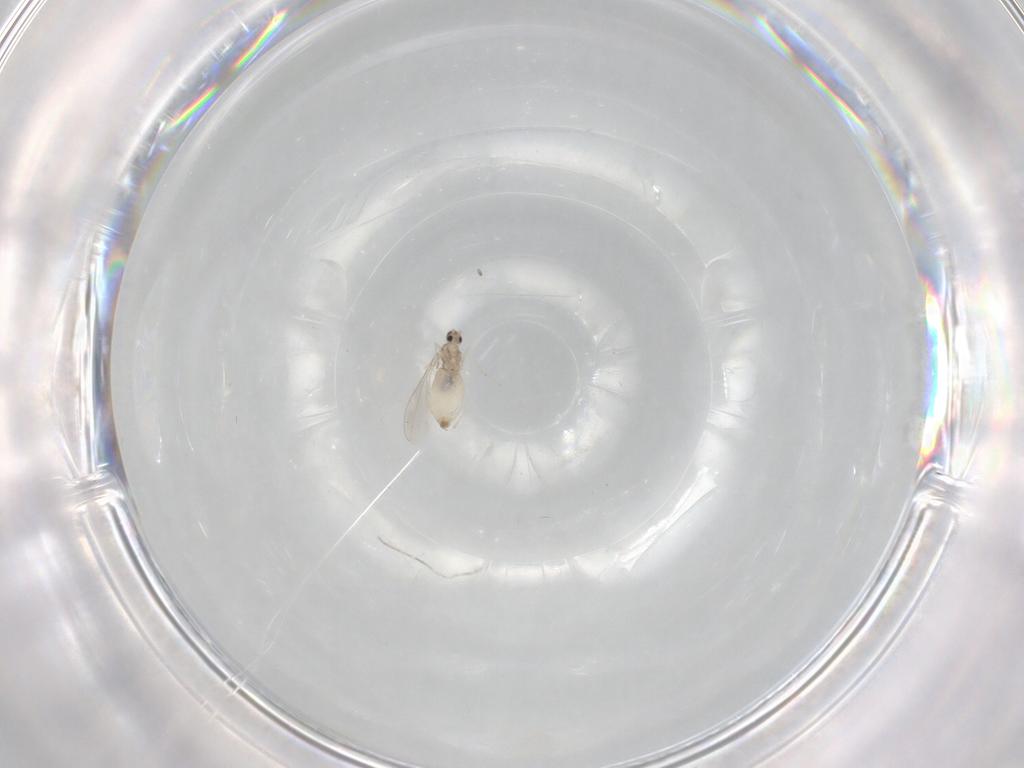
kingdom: Animalia
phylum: Arthropoda
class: Insecta
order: Diptera
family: Cecidomyiidae
